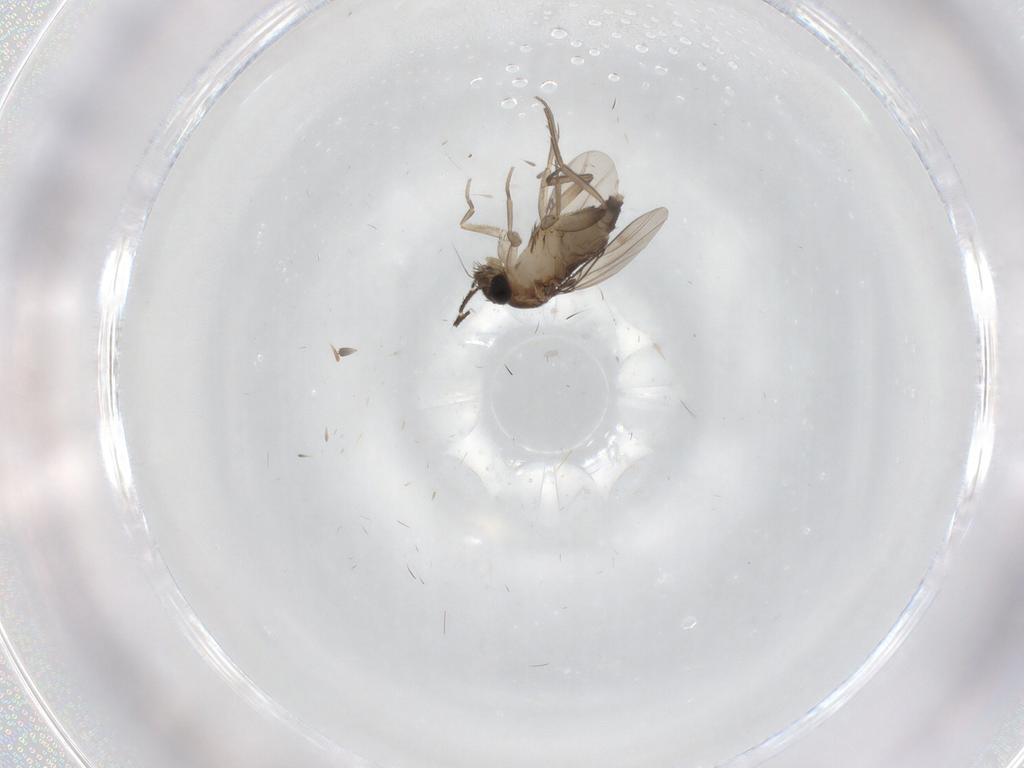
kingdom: Animalia
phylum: Arthropoda
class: Insecta
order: Diptera
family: Phoridae
